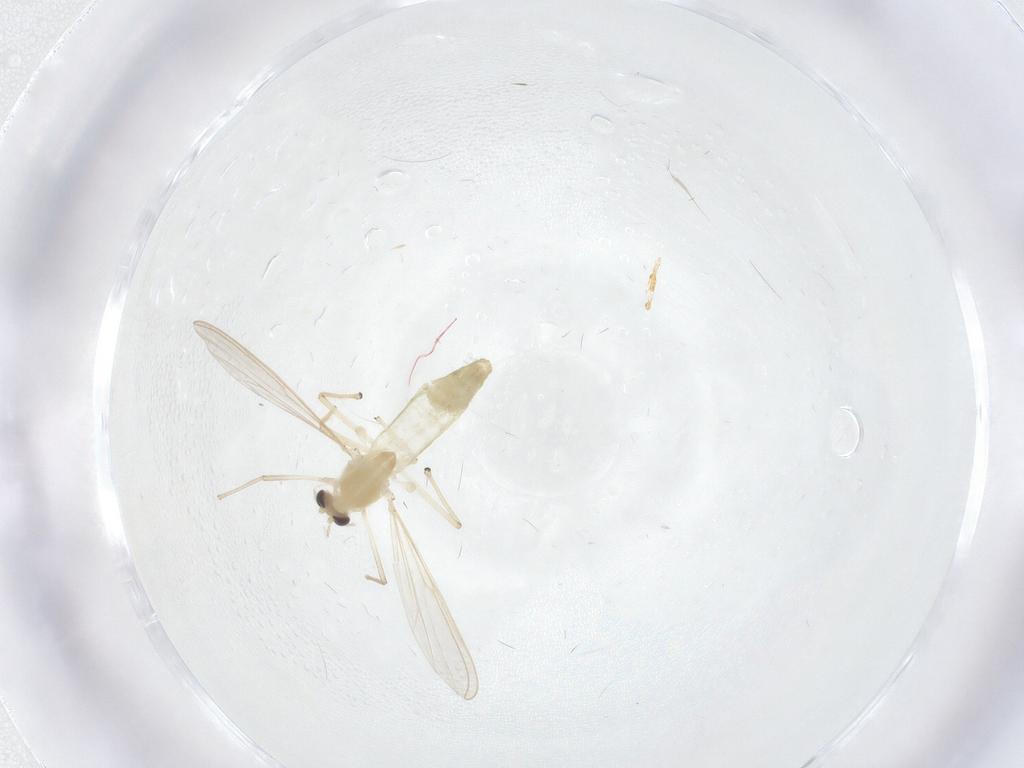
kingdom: Animalia
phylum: Arthropoda
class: Insecta
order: Diptera
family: Chironomidae
